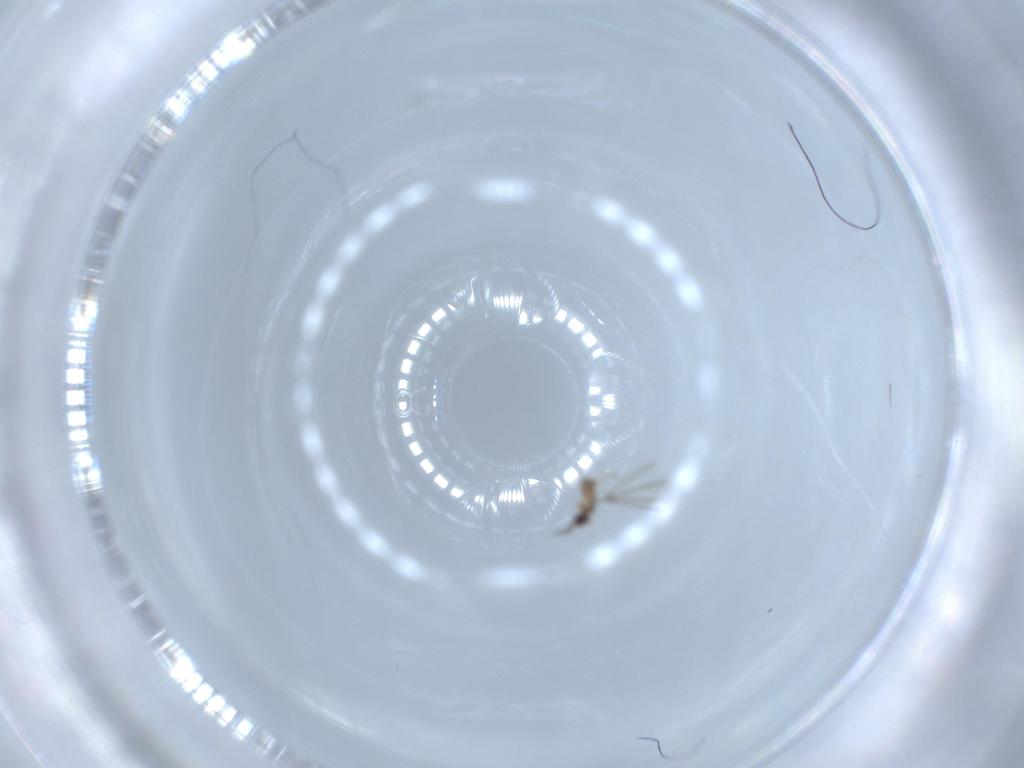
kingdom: Animalia
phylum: Arthropoda
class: Insecta
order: Hymenoptera
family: Mymaridae
